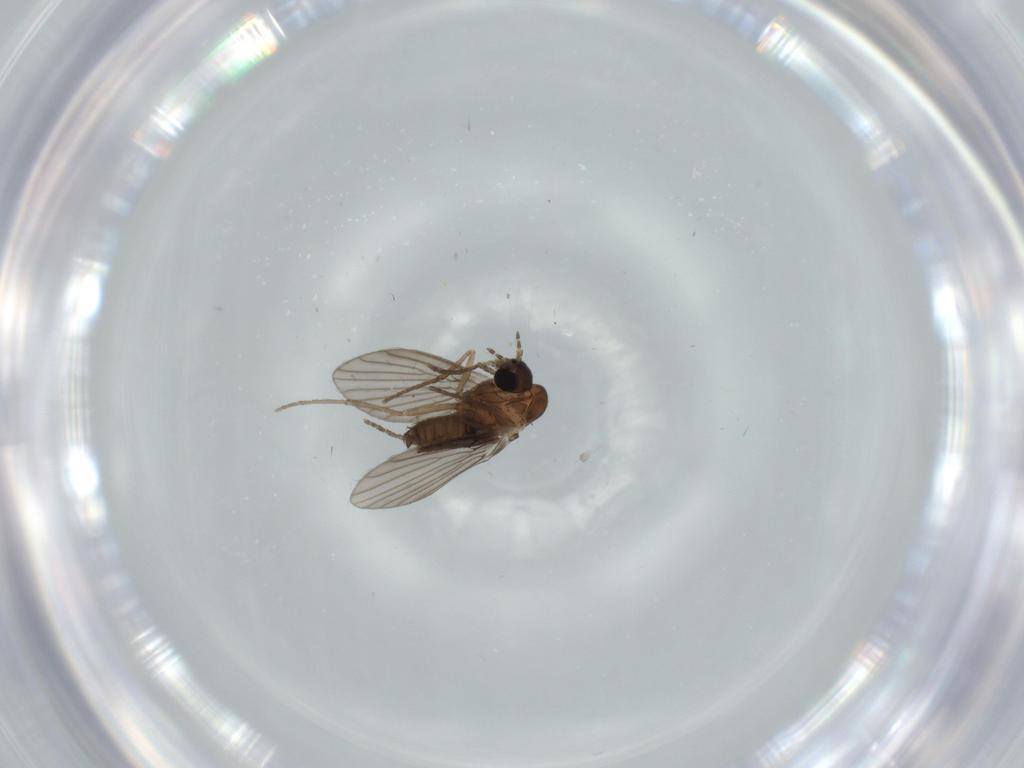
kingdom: Animalia
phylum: Arthropoda
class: Insecta
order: Diptera
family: Psychodidae
